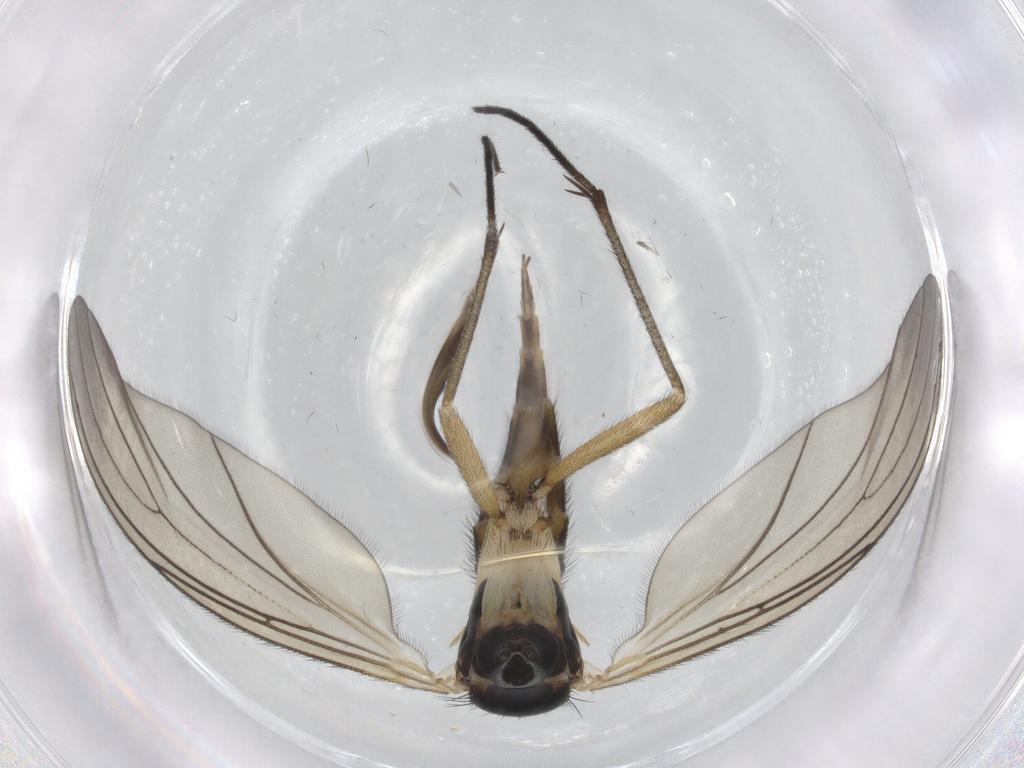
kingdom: Animalia
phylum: Arthropoda
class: Insecta
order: Diptera
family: Sciaridae
